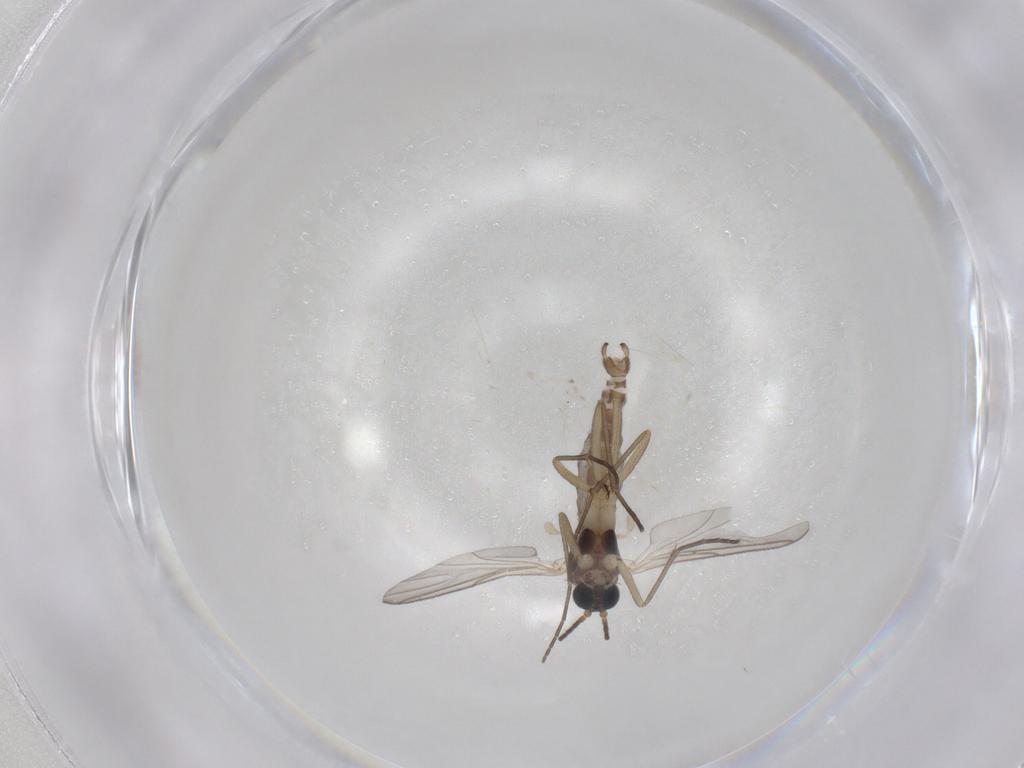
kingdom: Animalia
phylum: Arthropoda
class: Insecta
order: Diptera
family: Sciaridae
